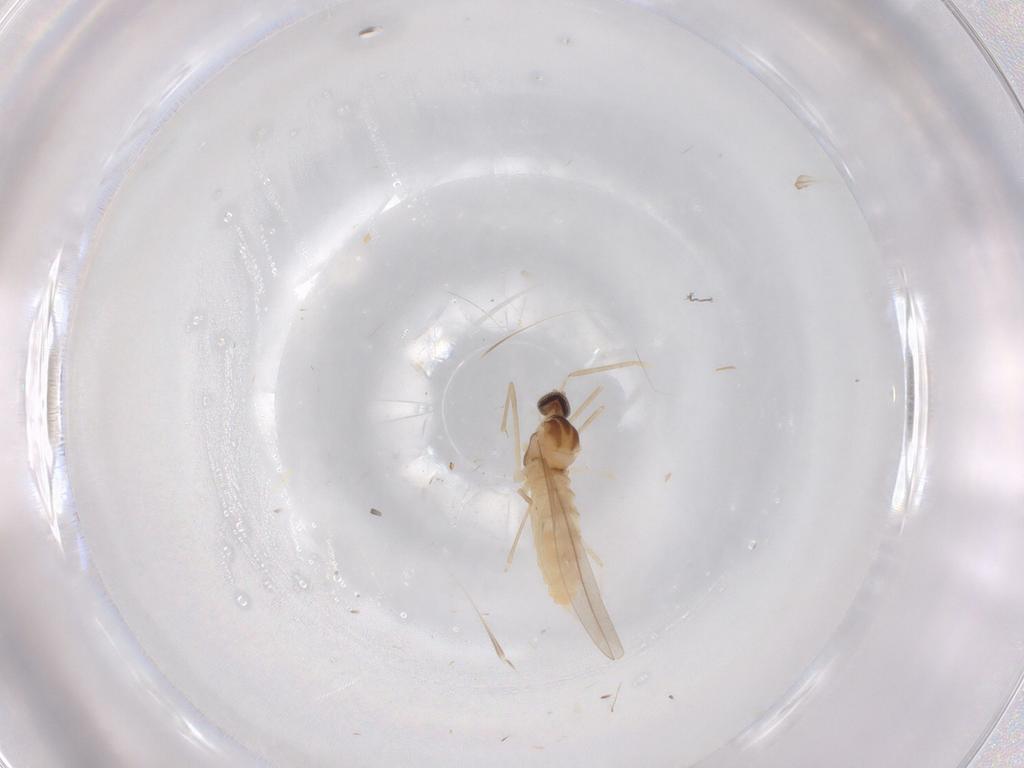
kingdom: Animalia
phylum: Arthropoda
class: Insecta
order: Diptera
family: Cecidomyiidae
